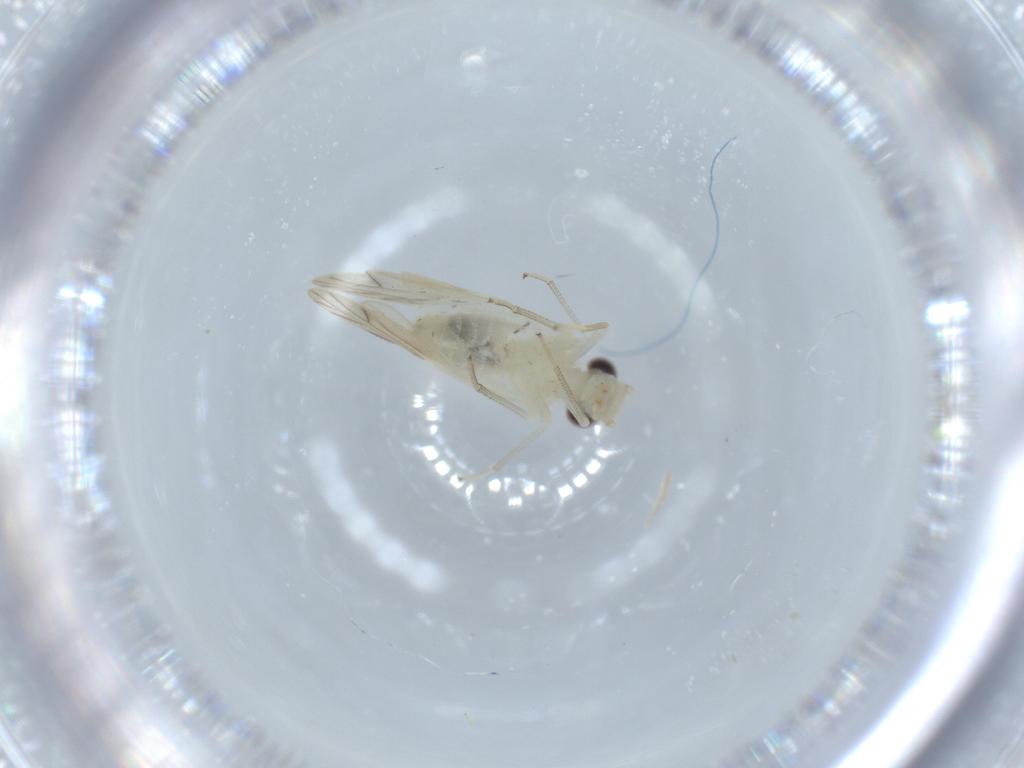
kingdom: Animalia
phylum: Arthropoda
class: Insecta
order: Psocodea
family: Caeciliusidae
